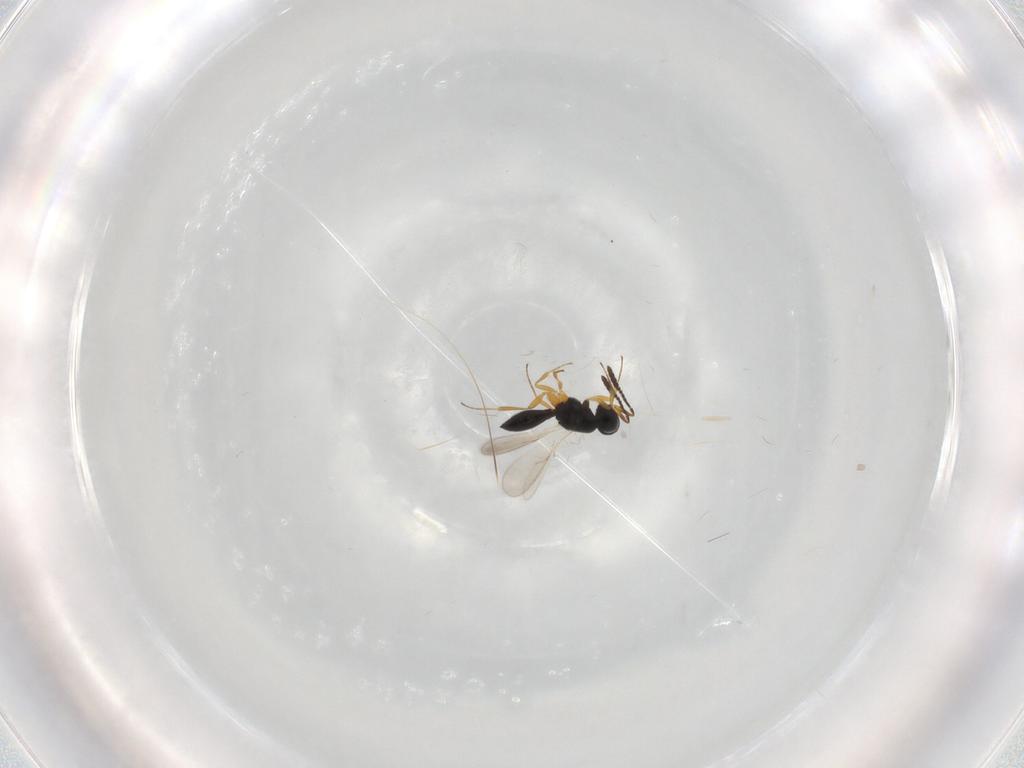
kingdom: Animalia
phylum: Arthropoda
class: Insecta
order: Hymenoptera
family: Scelionidae
